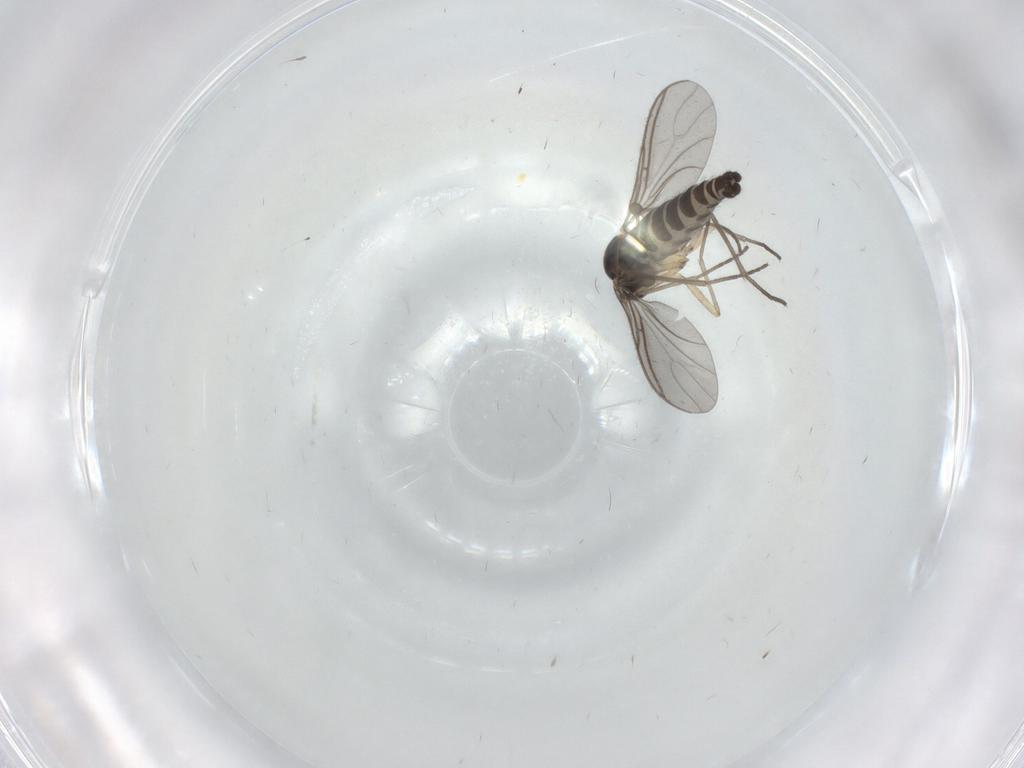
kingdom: Animalia
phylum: Arthropoda
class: Insecta
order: Diptera
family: Sciaridae
